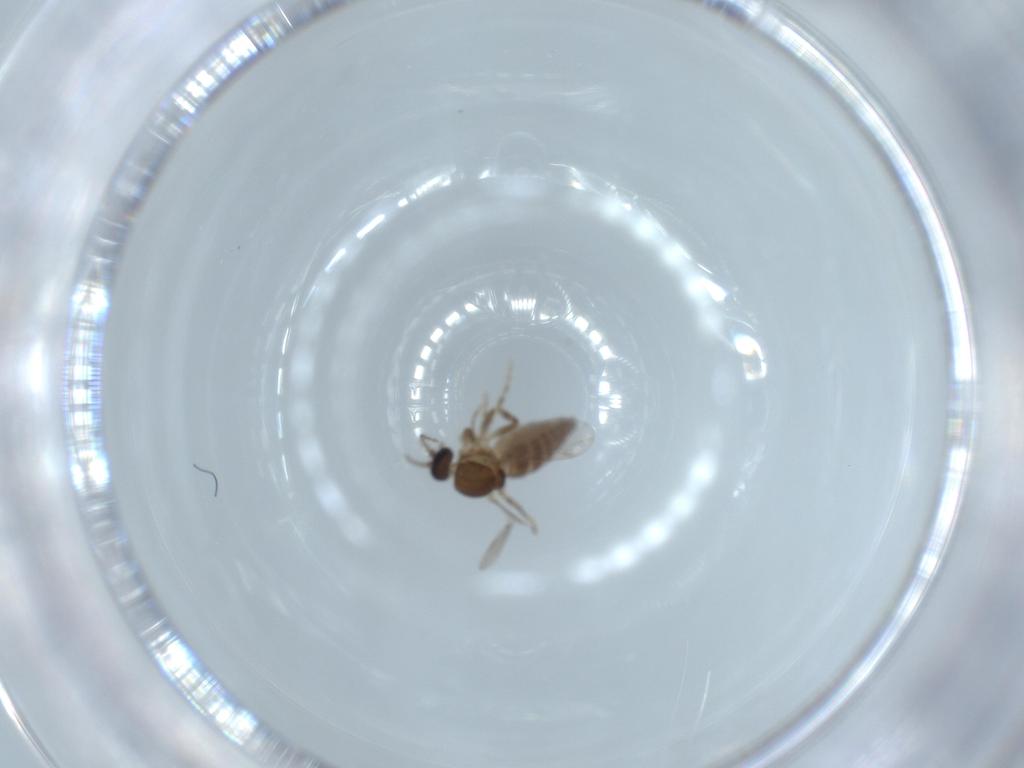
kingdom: Animalia
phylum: Arthropoda
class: Insecta
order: Diptera
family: Ceratopogonidae
